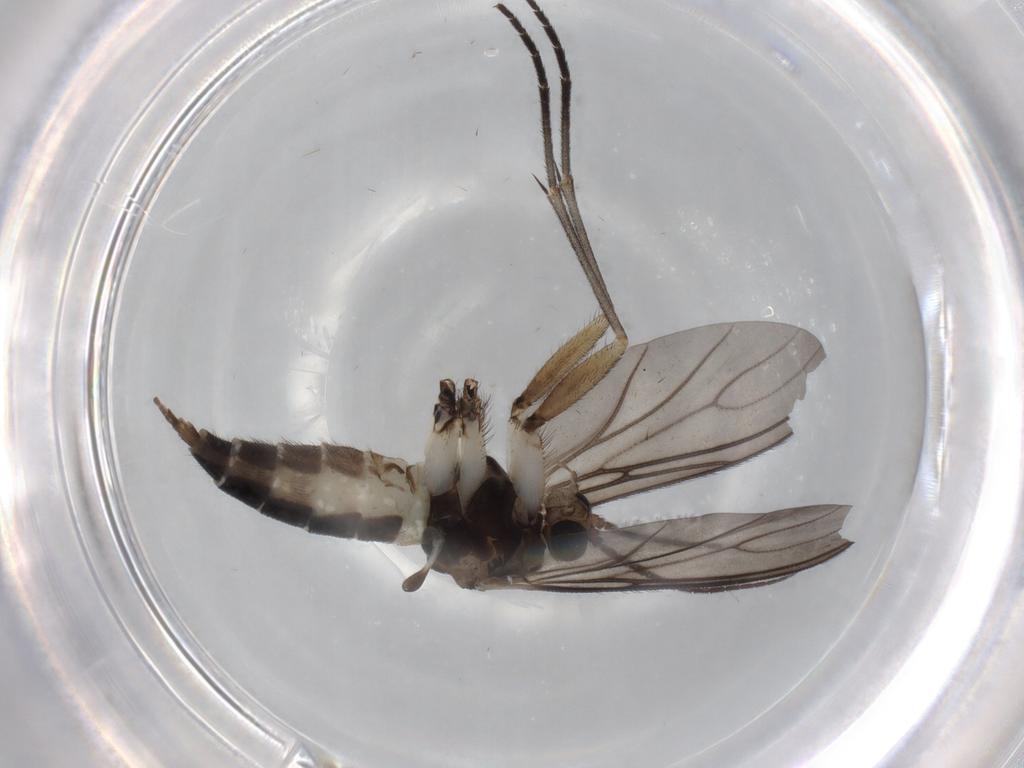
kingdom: Animalia
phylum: Arthropoda
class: Insecta
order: Diptera
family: Sciaridae
